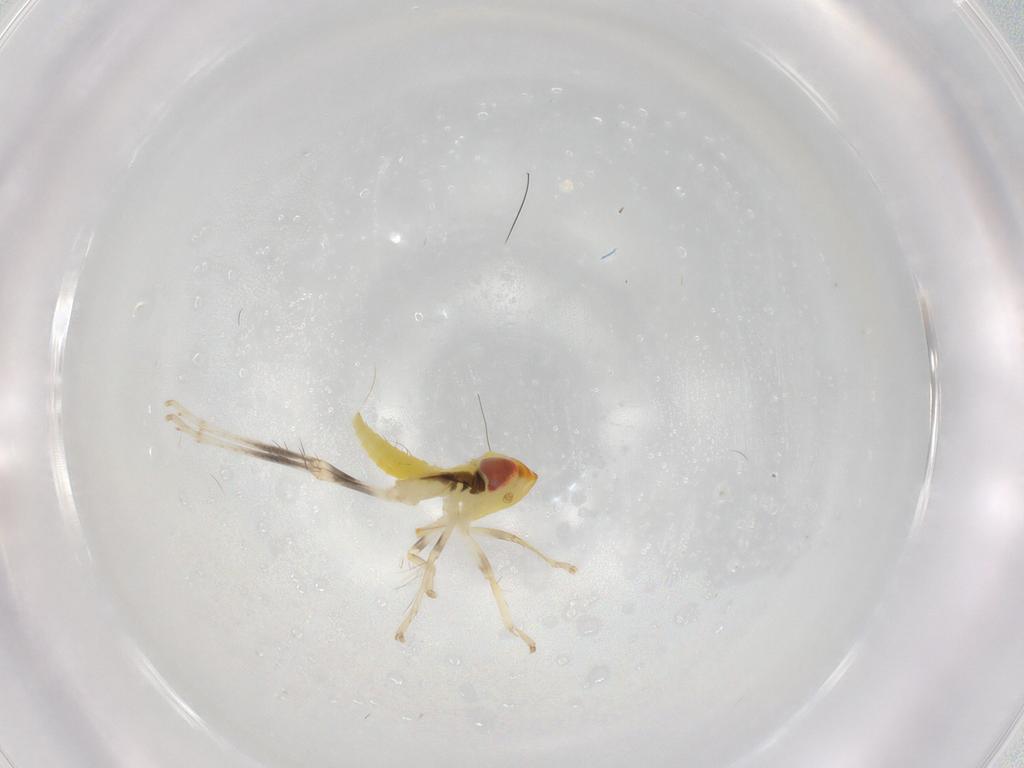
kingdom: Animalia
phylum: Arthropoda
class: Insecta
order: Hemiptera
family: Cicadellidae
